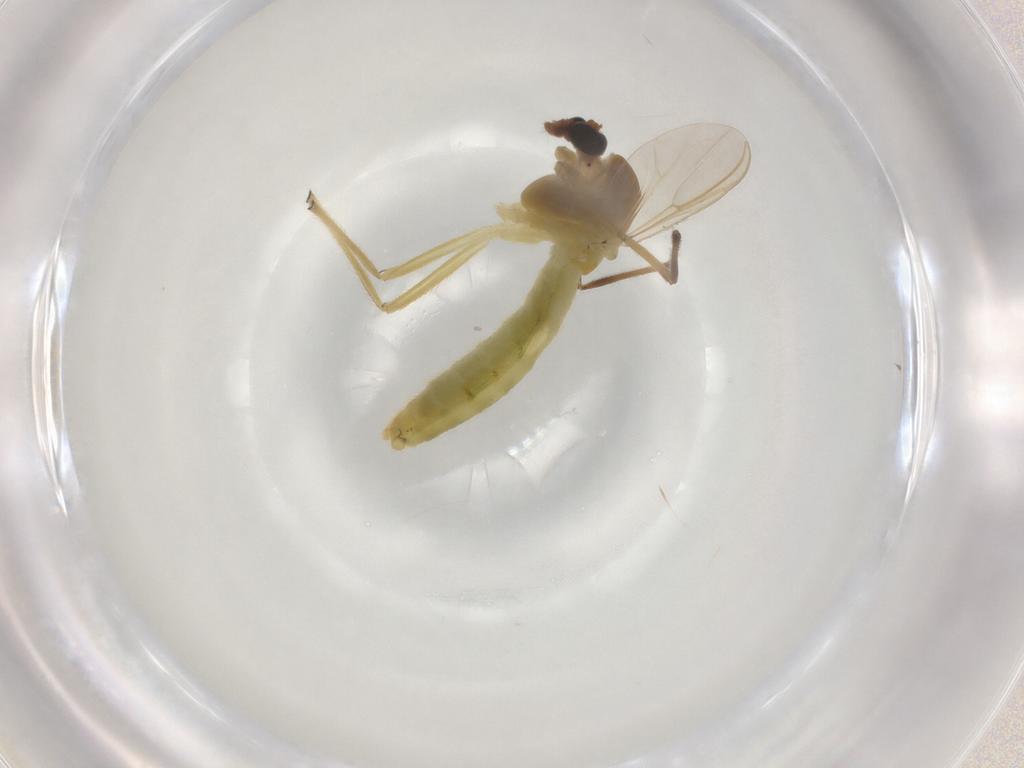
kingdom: Animalia
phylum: Arthropoda
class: Insecta
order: Diptera
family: Chironomidae
